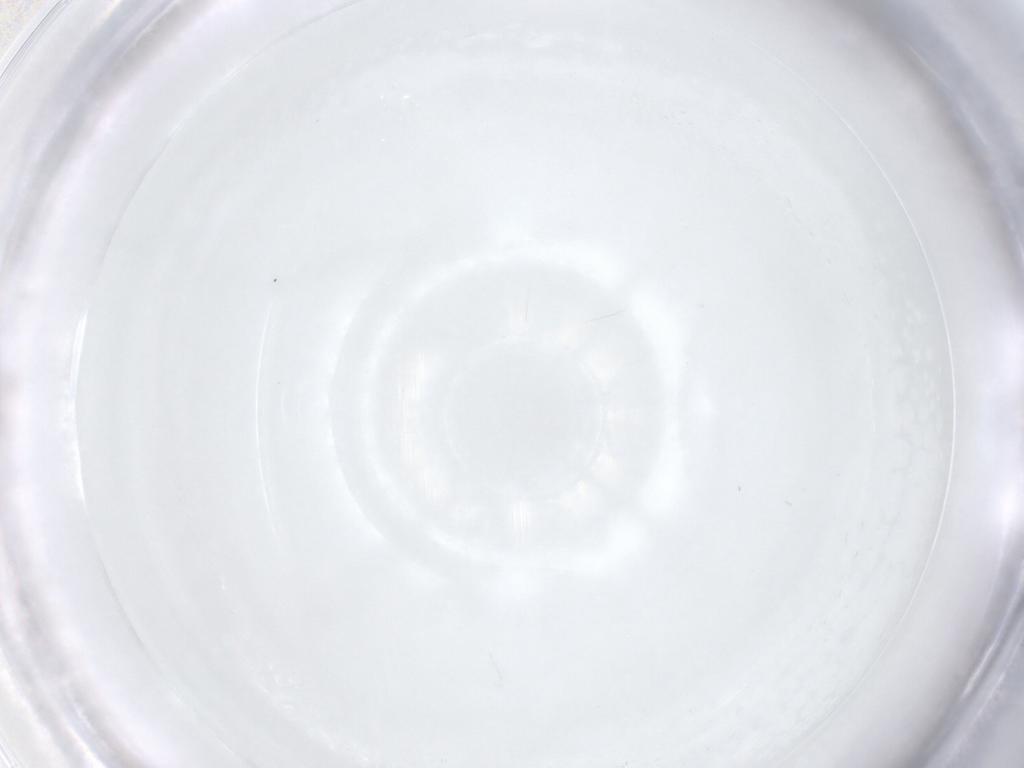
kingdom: Animalia
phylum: Arthropoda
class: Insecta
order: Diptera
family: Chironomidae
